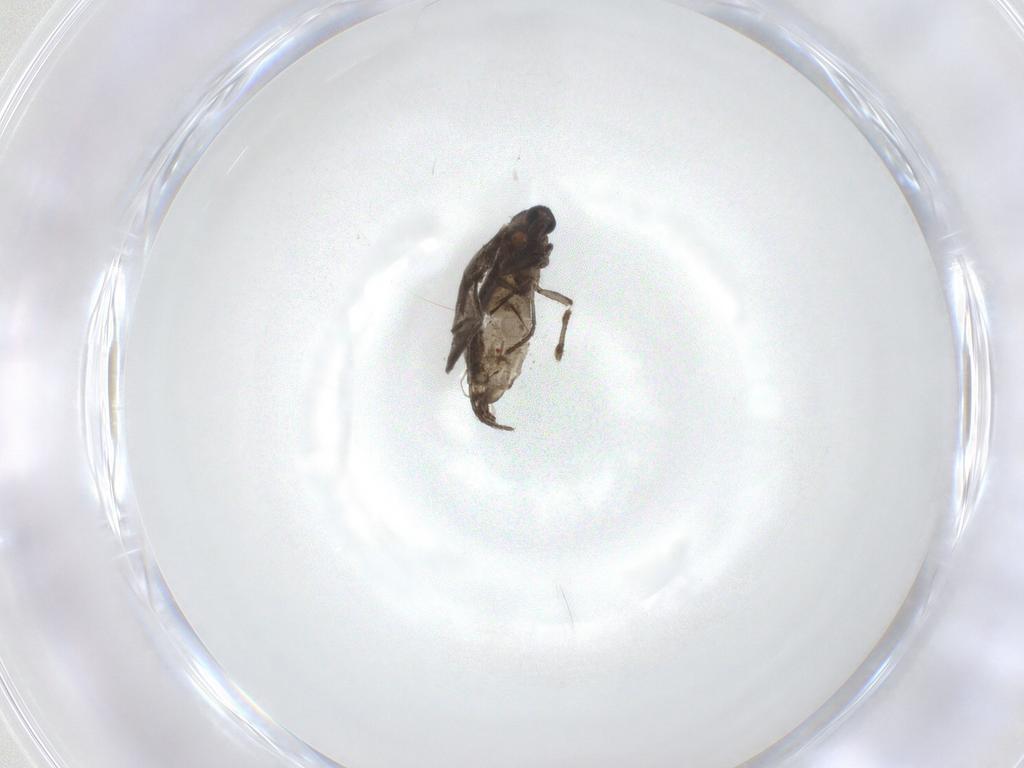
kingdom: Animalia
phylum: Arthropoda
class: Insecta
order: Diptera
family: Sciaridae
